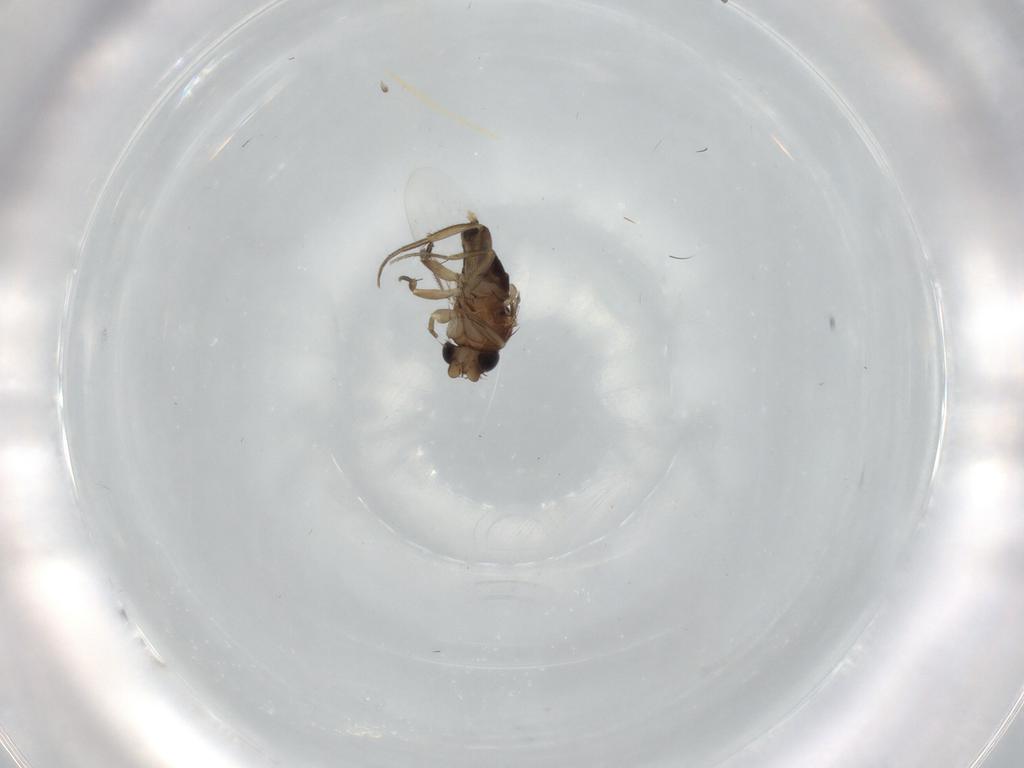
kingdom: Animalia
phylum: Arthropoda
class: Insecta
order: Diptera
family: Phoridae
